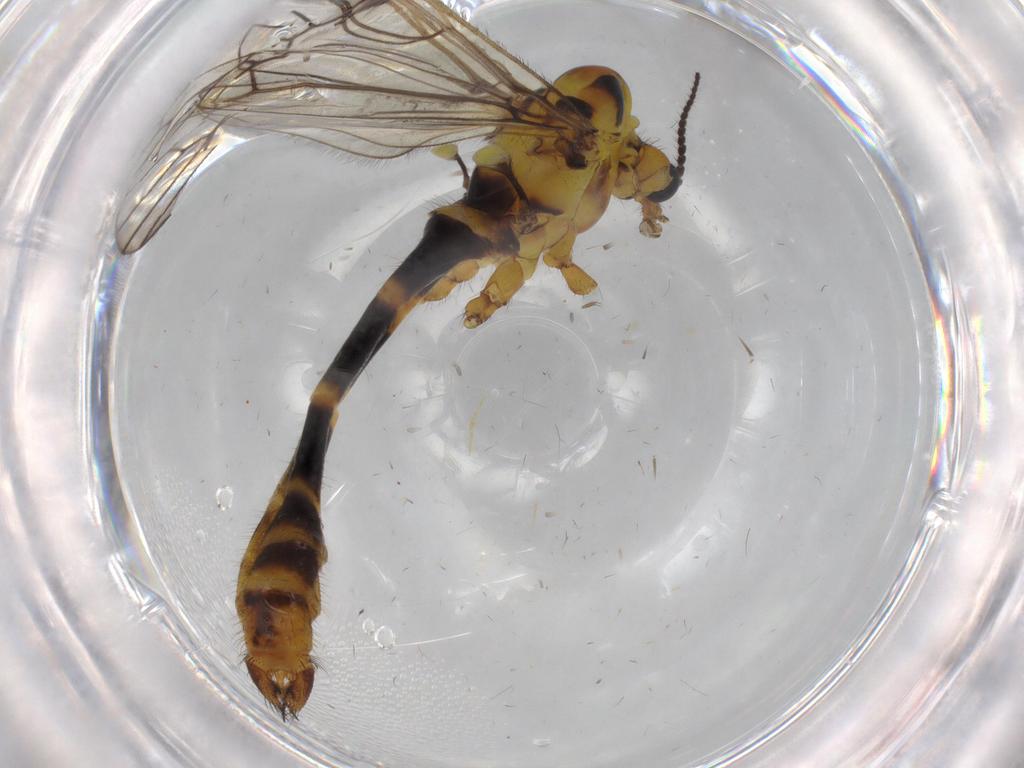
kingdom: Animalia
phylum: Arthropoda
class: Insecta
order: Diptera
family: Limoniidae
